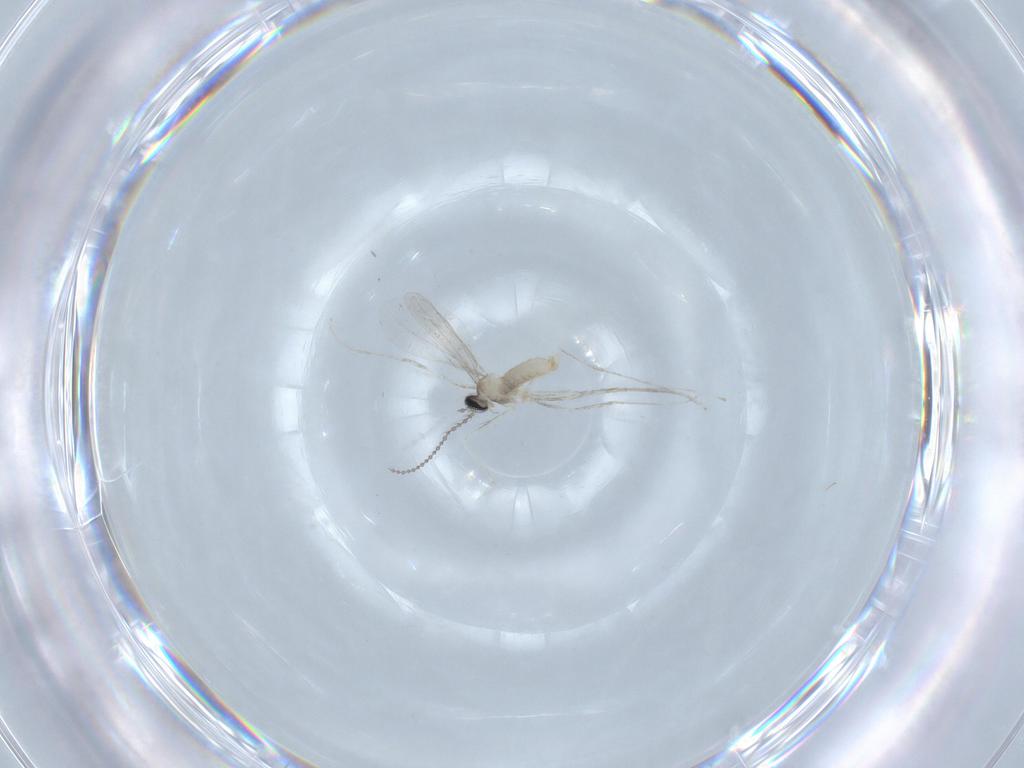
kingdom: Animalia
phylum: Arthropoda
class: Insecta
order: Diptera
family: Cecidomyiidae
